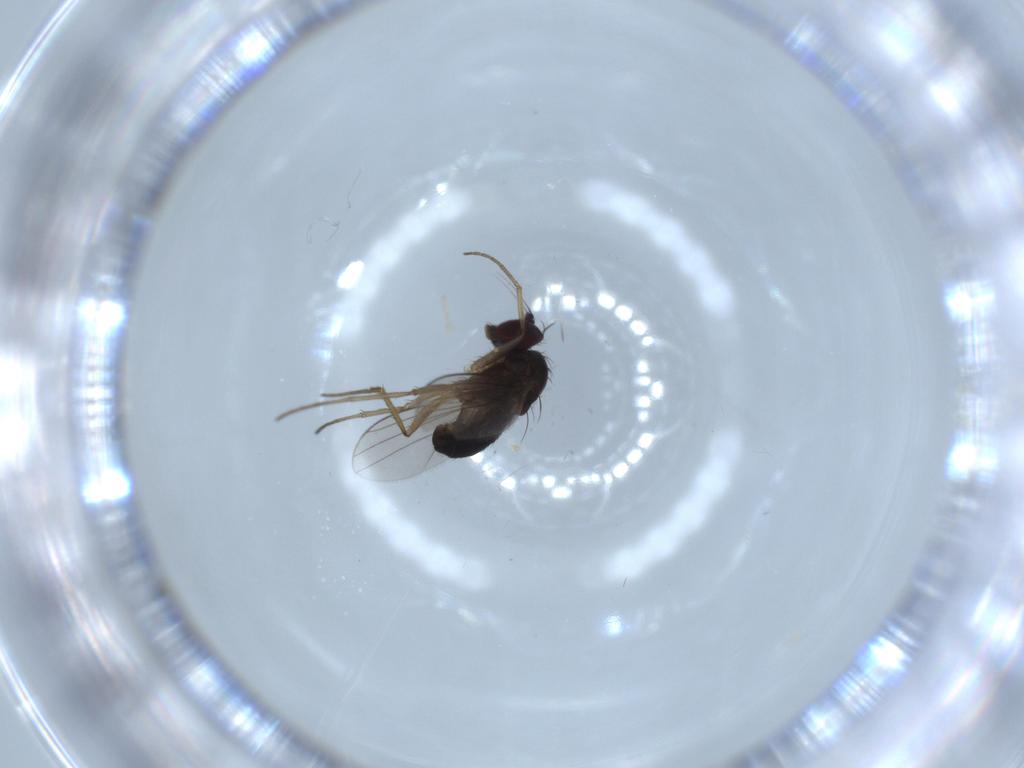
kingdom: Animalia
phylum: Arthropoda
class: Insecta
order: Diptera
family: Dolichopodidae
